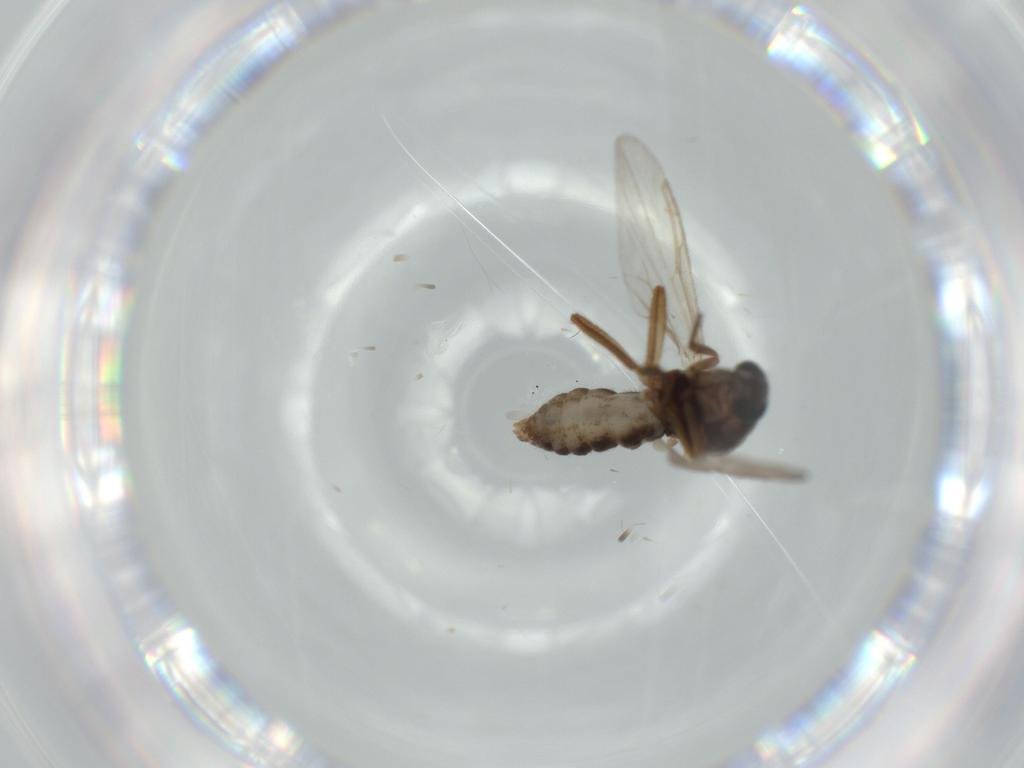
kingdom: Animalia
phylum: Arthropoda
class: Insecta
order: Diptera
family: Ceratopogonidae
